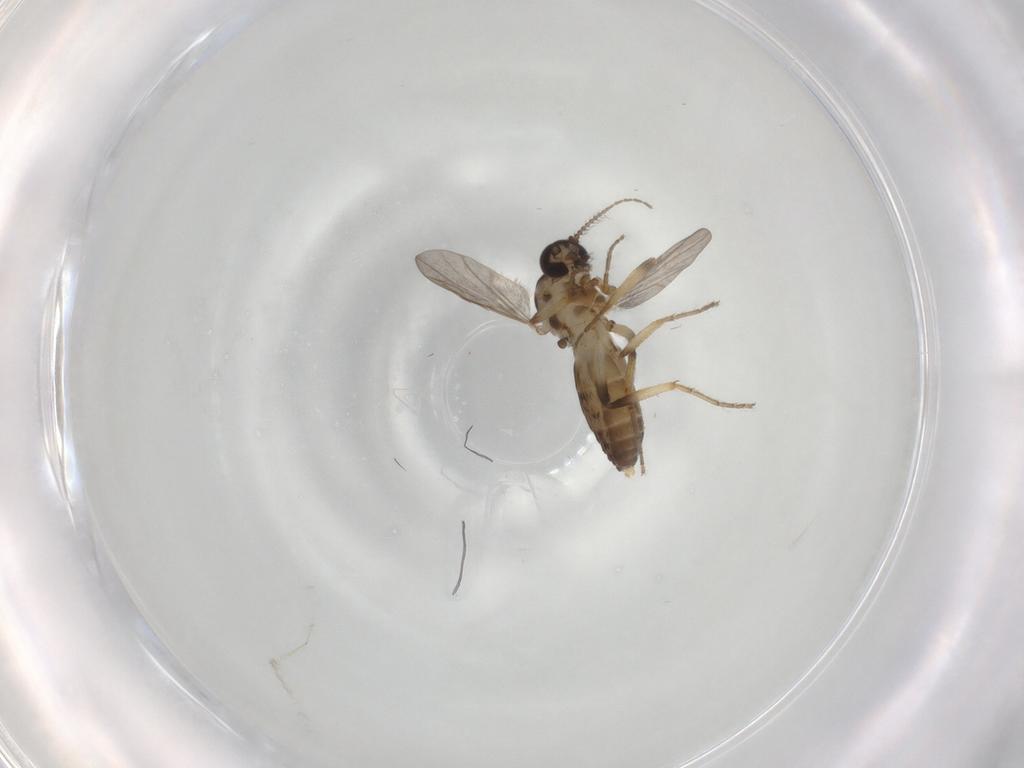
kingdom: Animalia
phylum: Arthropoda
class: Insecta
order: Diptera
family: Ceratopogonidae
